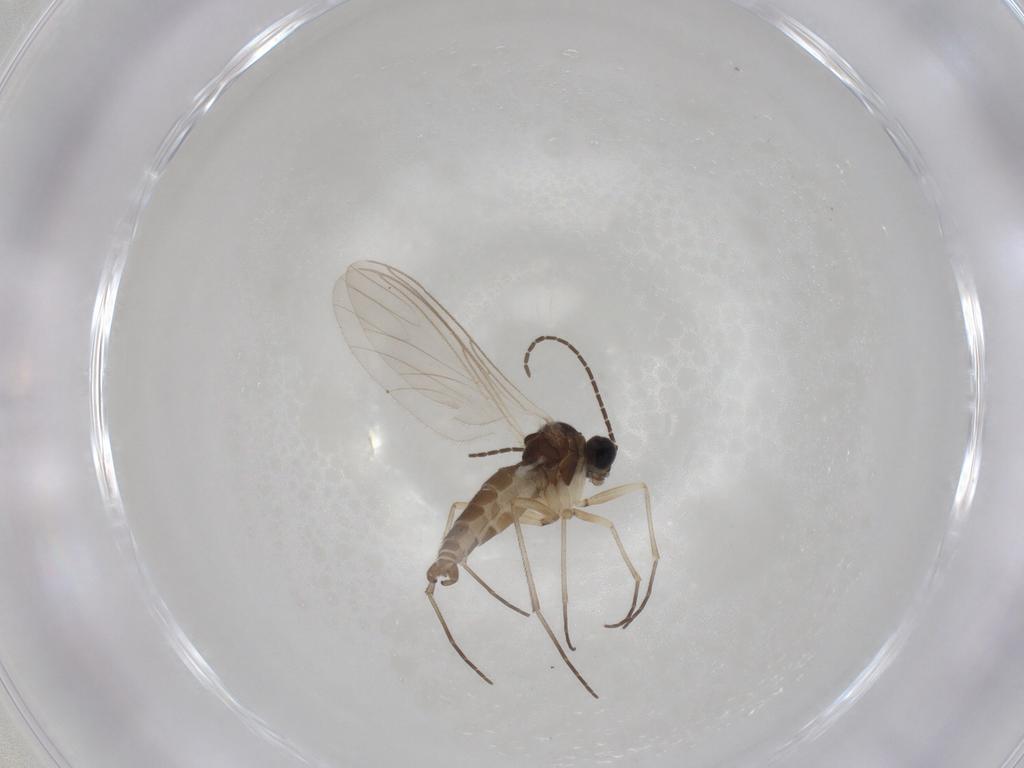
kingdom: Animalia
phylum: Arthropoda
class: Insecta
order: Diptera
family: Sciaridae
